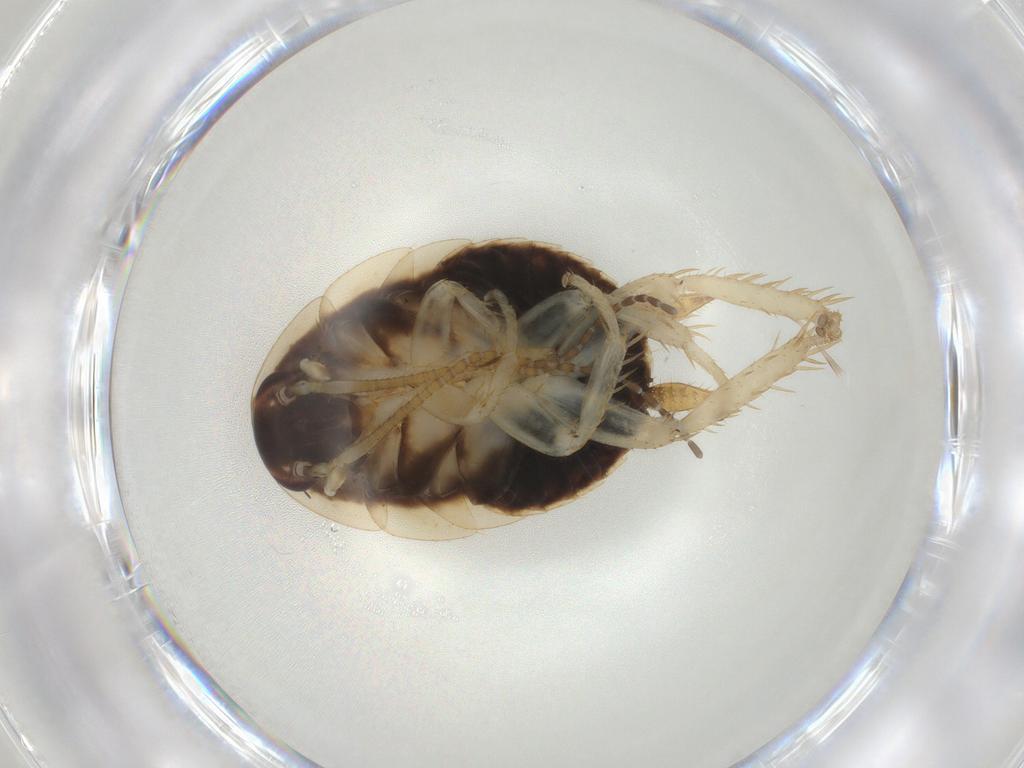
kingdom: Animalia
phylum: Arthropoda
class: Insecta
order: Blattodea
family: Ectobiidae
